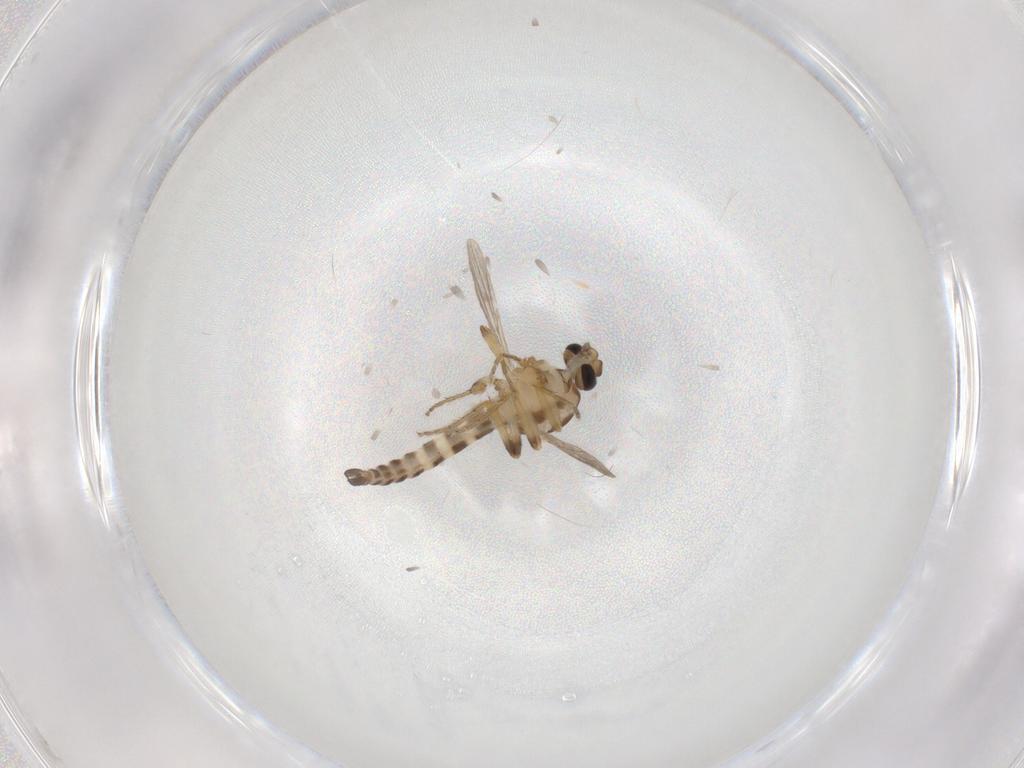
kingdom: Animalia
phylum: Arthropoda
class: Insecta
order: Diptera
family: Ceratopogonidae
